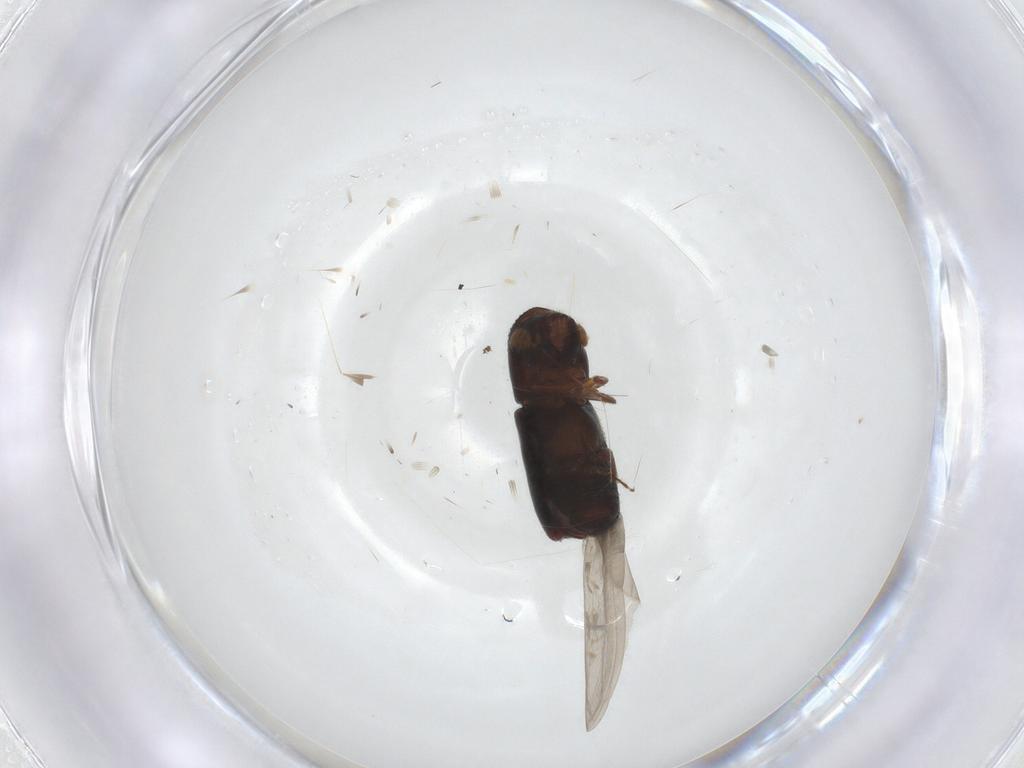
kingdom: Animalia
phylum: Arthropoda
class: Insecta
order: Coleoptera
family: Curculionidae
